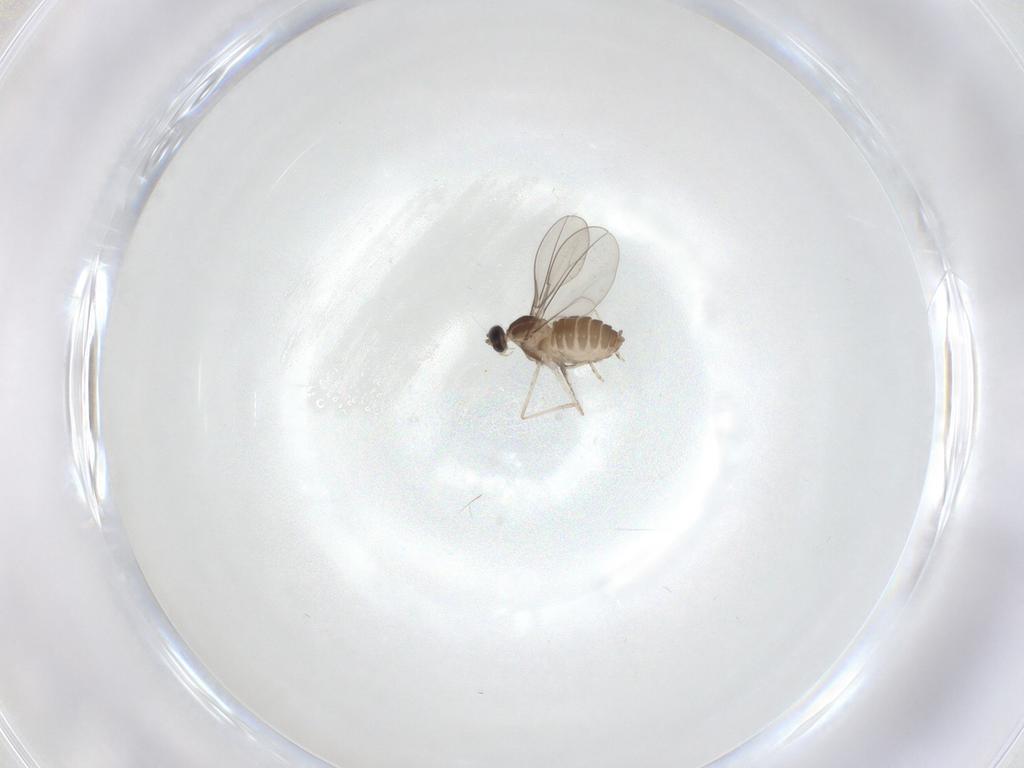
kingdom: Animalia
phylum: Arthropoda
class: Insecta
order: Diptera
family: Cecidomyiidae
